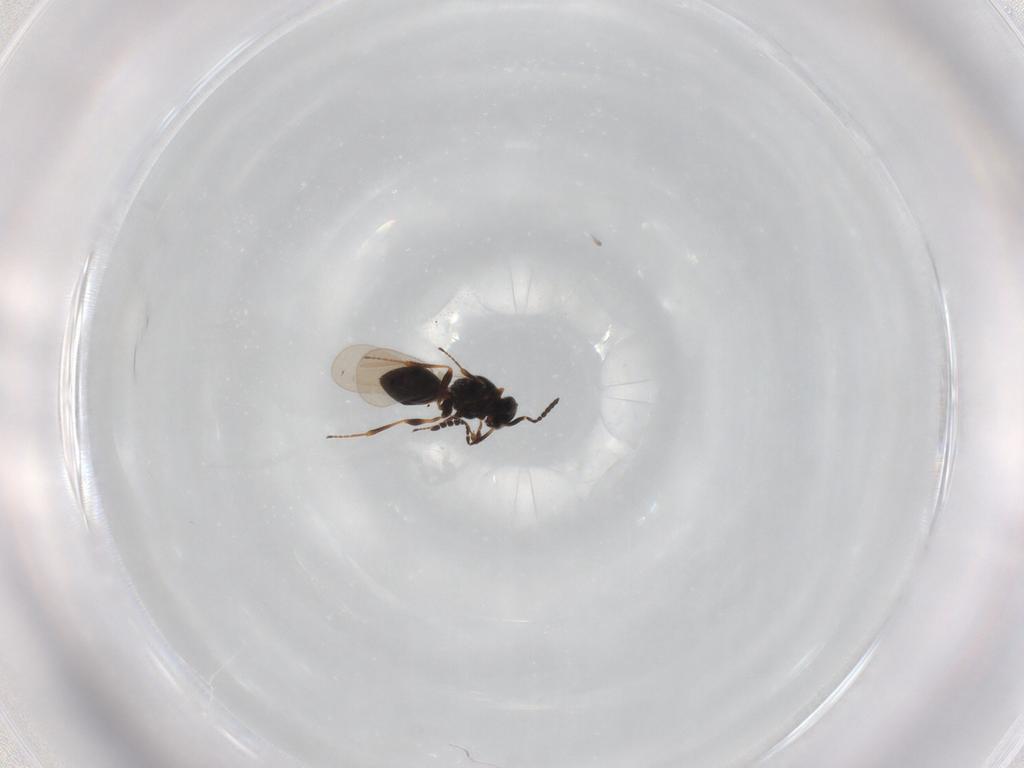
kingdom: Animalia
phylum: Arthropoda
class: Insecta
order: Hymenoptera
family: Platygastridae
